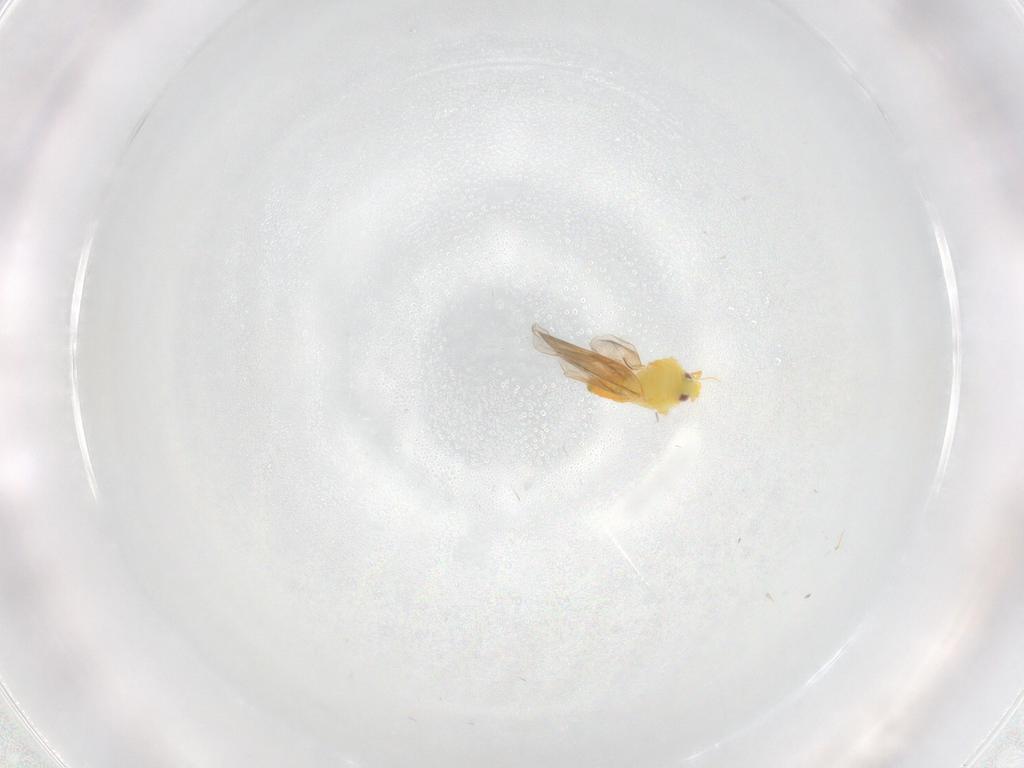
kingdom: Animalia
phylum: Arthropoda
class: Insecta
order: Hemiptera
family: Aleyrodidae
